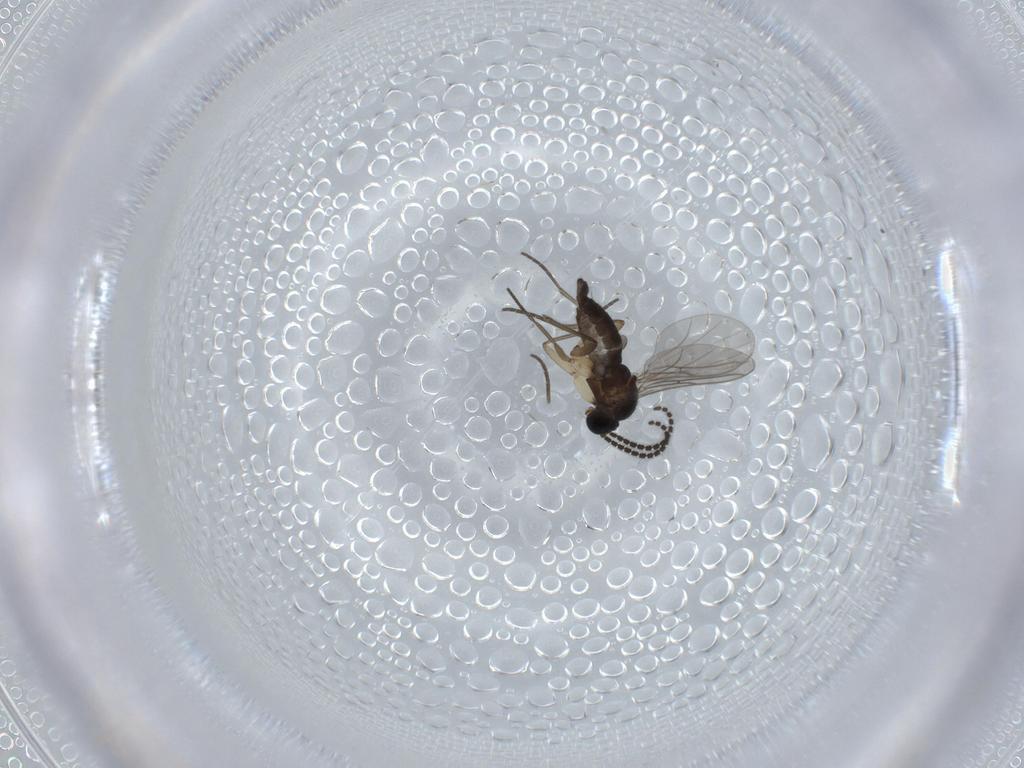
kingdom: Animalia
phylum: Arthropoda
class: Insecta
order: Diptera
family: Sciaridae
